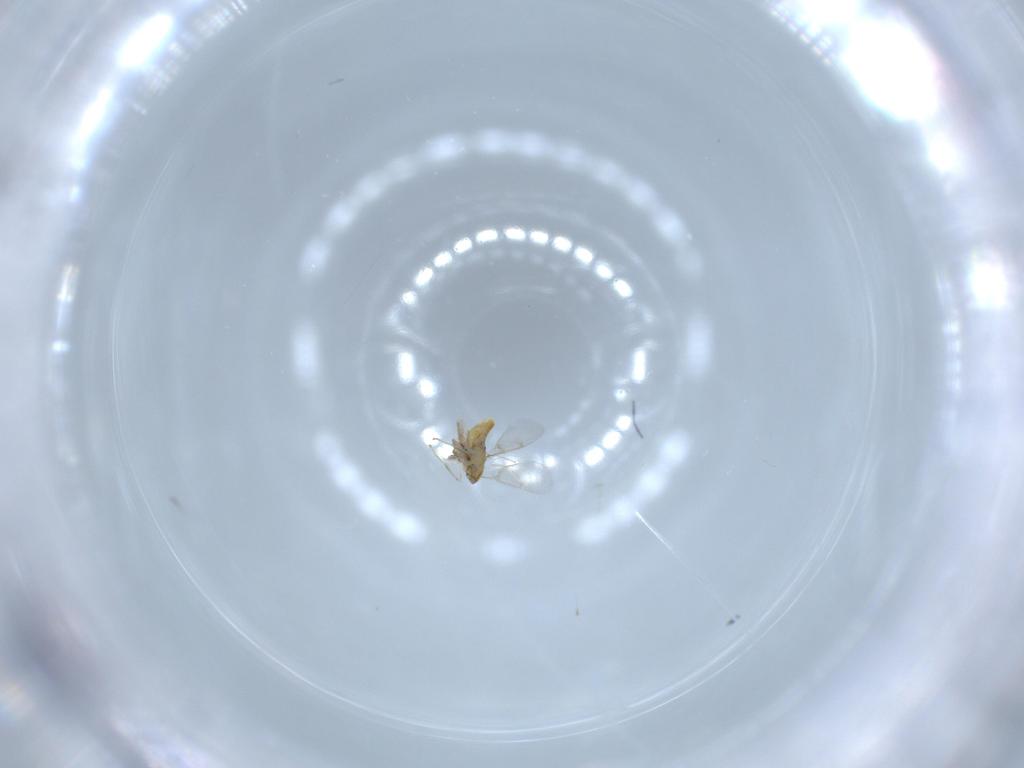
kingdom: Animalia
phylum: Arthropoda
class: Insecta
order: Hymenoptera
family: Aphelinidae
